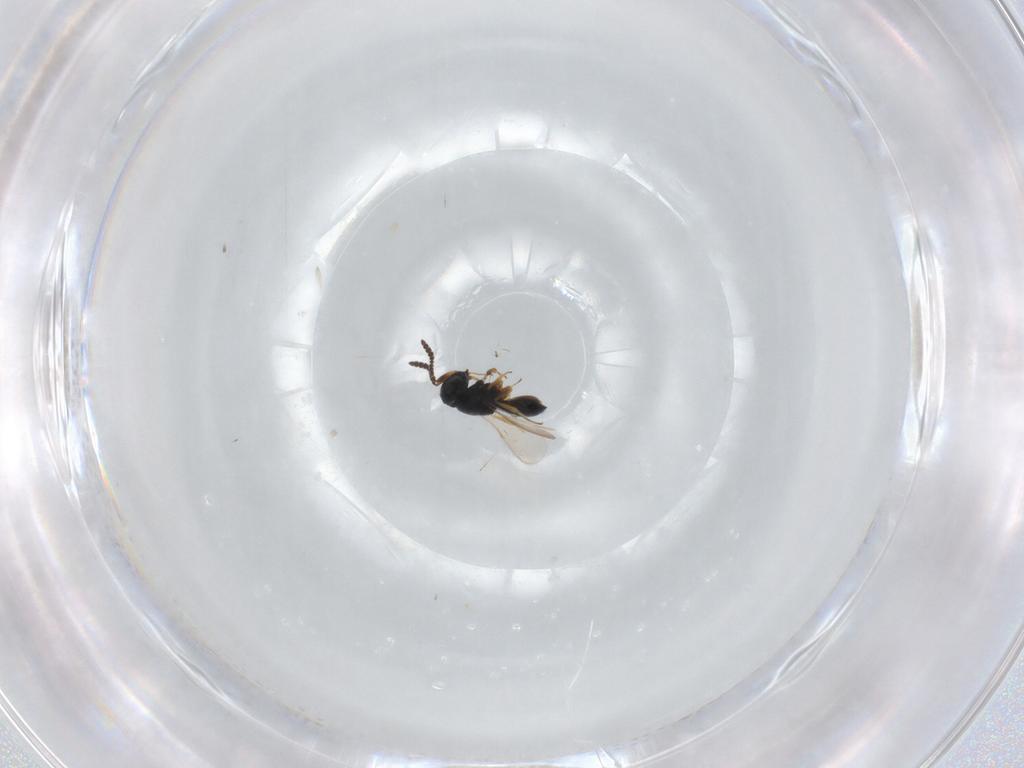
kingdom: Animalia
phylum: Arthropoda
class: Insecta
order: Hymenoptera
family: Scelionidae
